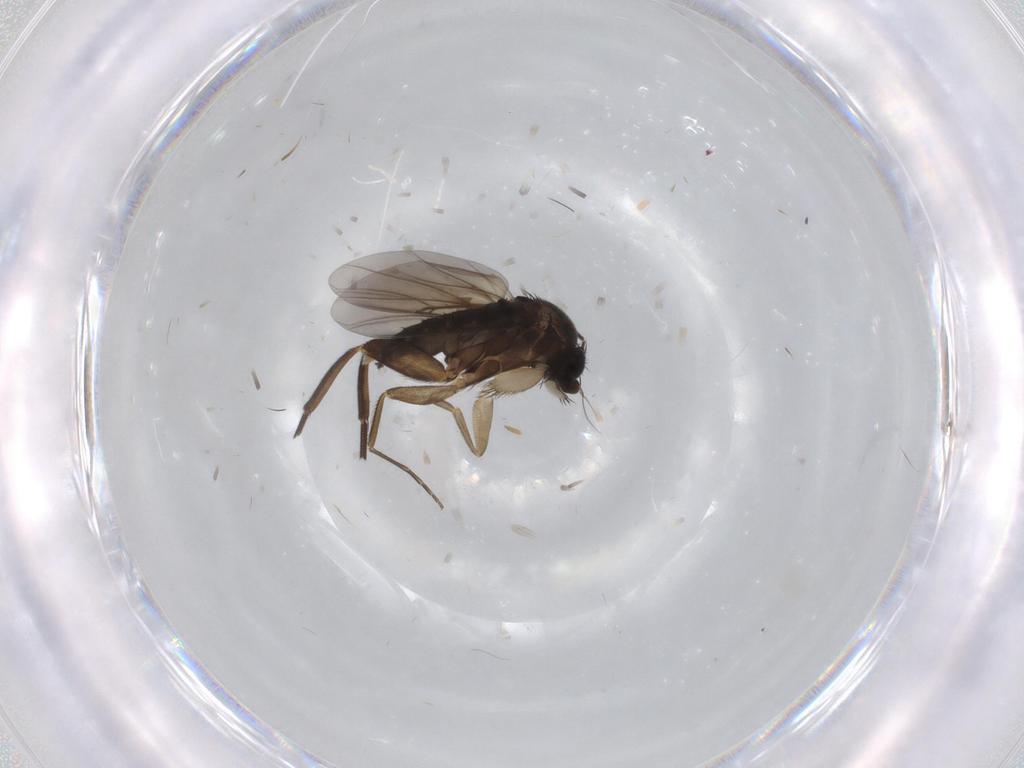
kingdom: Animalia
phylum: Arthropoda
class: Insecta
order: Diptera
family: Phoridae
